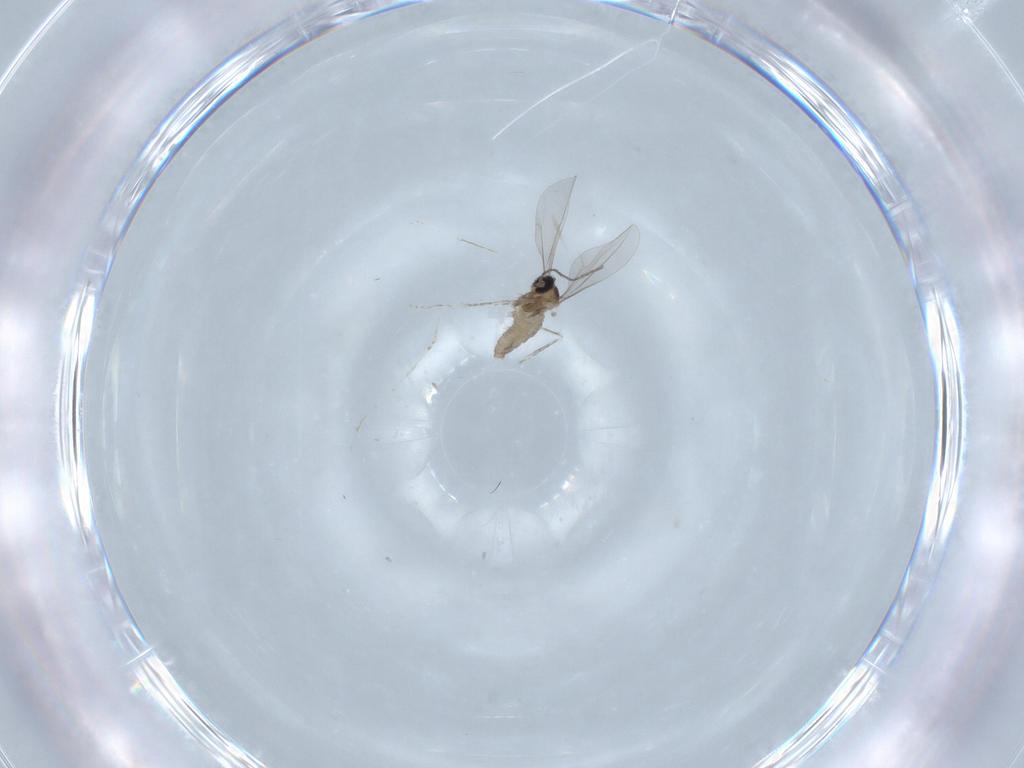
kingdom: Animalia
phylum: Arthropoda
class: Insecta
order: Diptera
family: Cecidomyiidae
